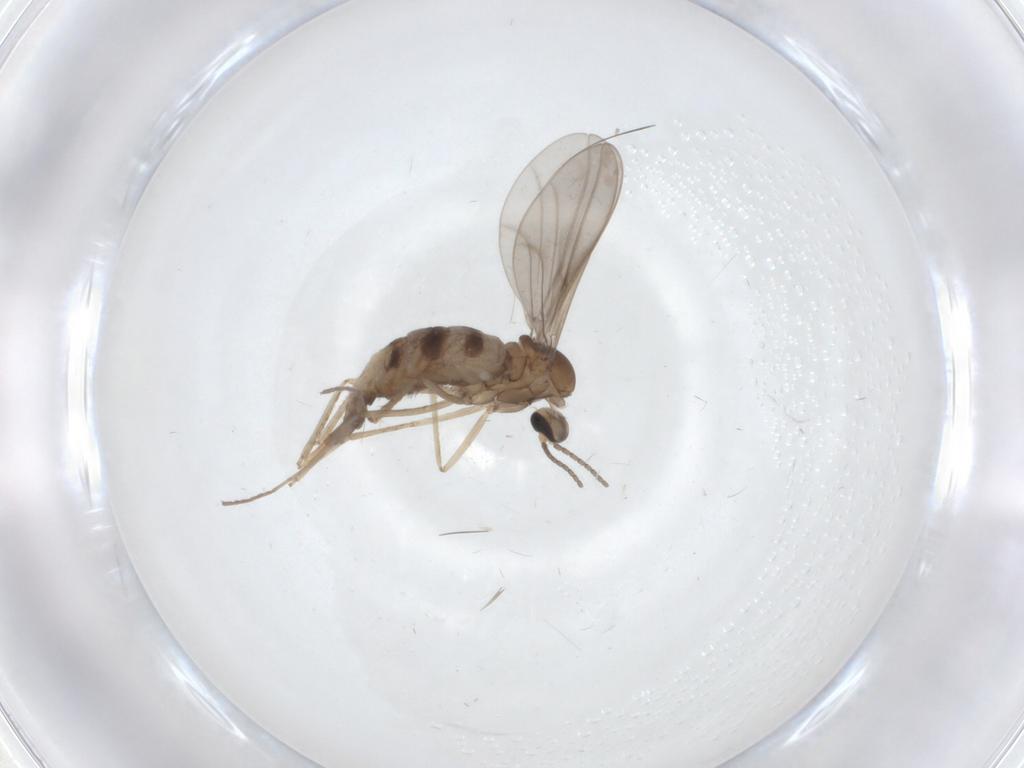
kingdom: Animalia
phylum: Arthropoda
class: Insecta
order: Diptera
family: Cecidomyiidae
